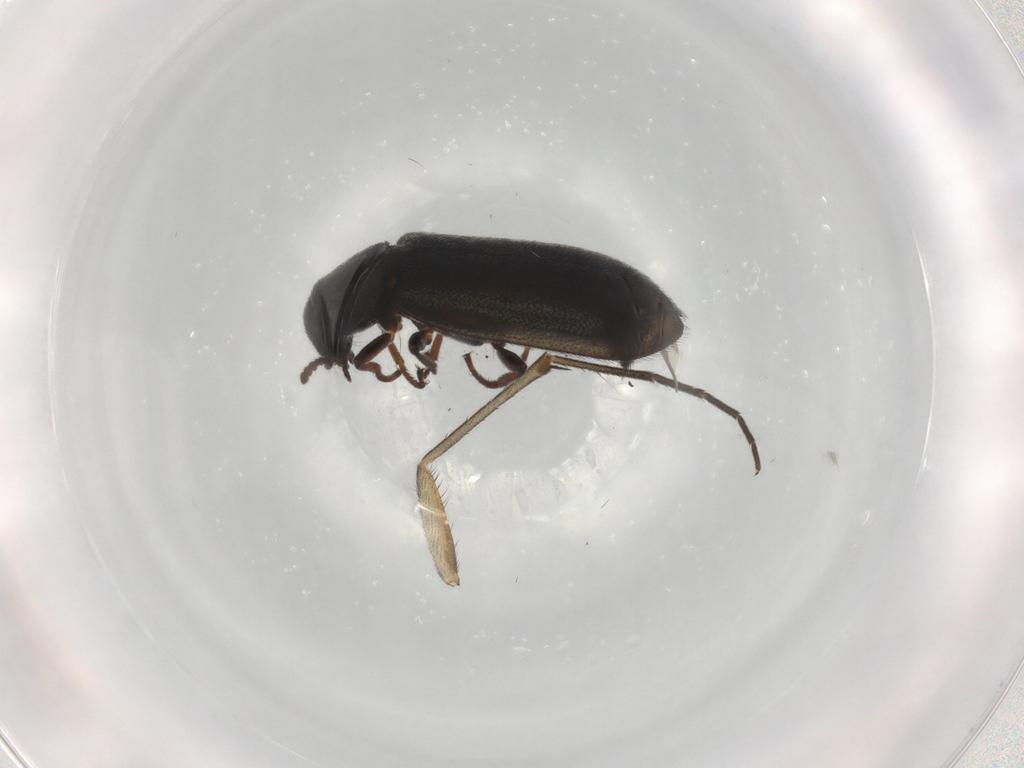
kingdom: Animalia
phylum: Arthropoda
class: Insecta
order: Coleoptera
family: Melyridae
